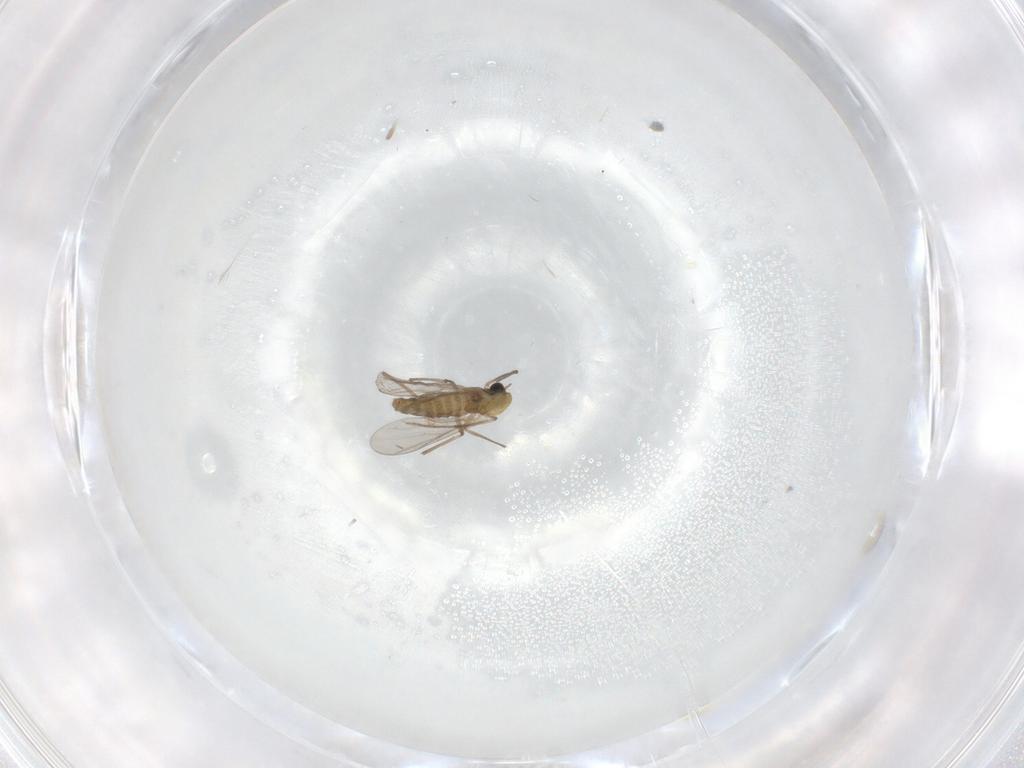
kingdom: Animalia
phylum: Arthropoda
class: Insecta
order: Diptera
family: Chironomidae
